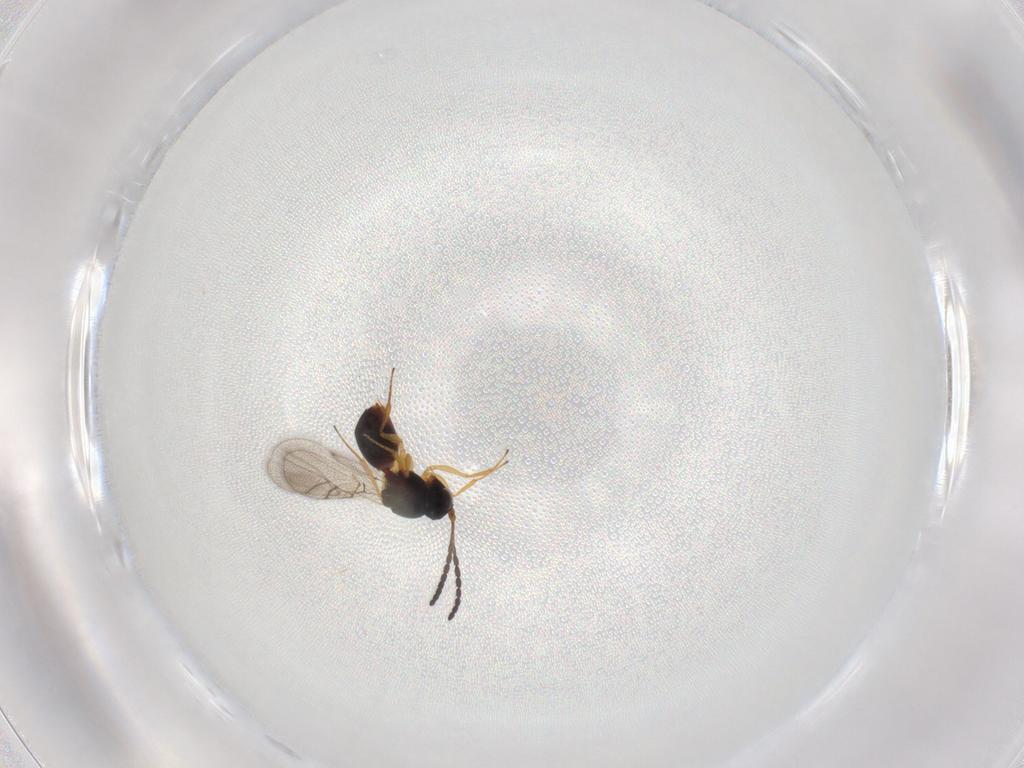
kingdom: Animalia
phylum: Arthropoda
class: Insecta
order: Hymenoptera
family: Figitidae
